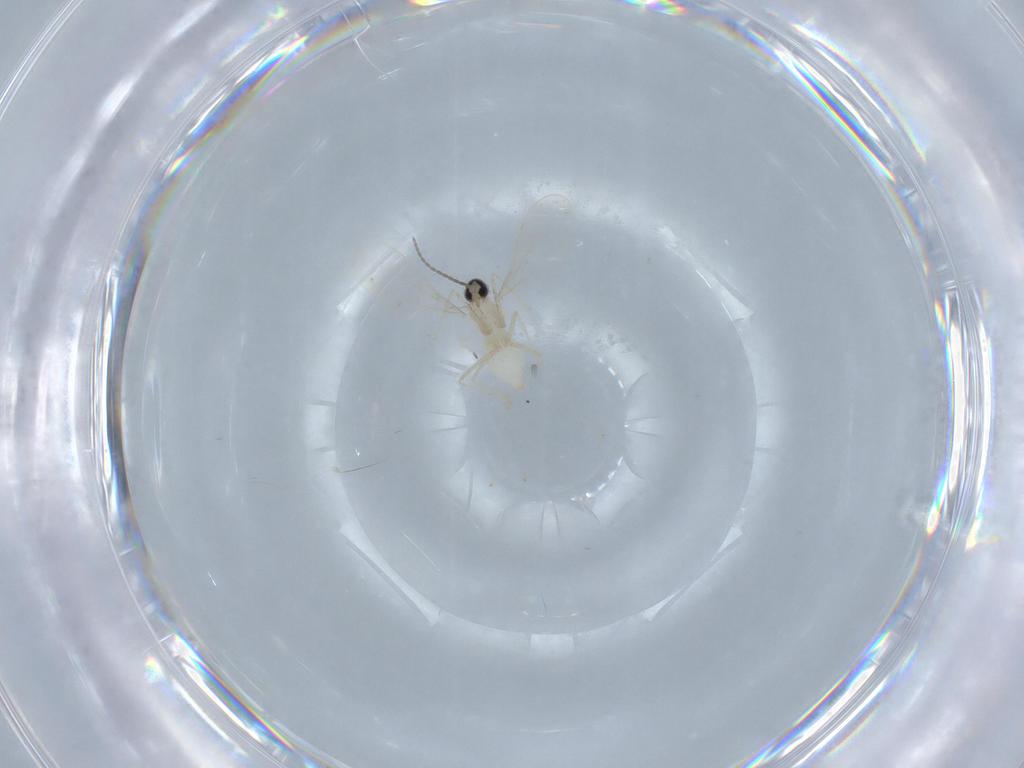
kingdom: Animalia
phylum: Arthropoda
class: Insecta
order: Diptera
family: Cecidomyiidae
